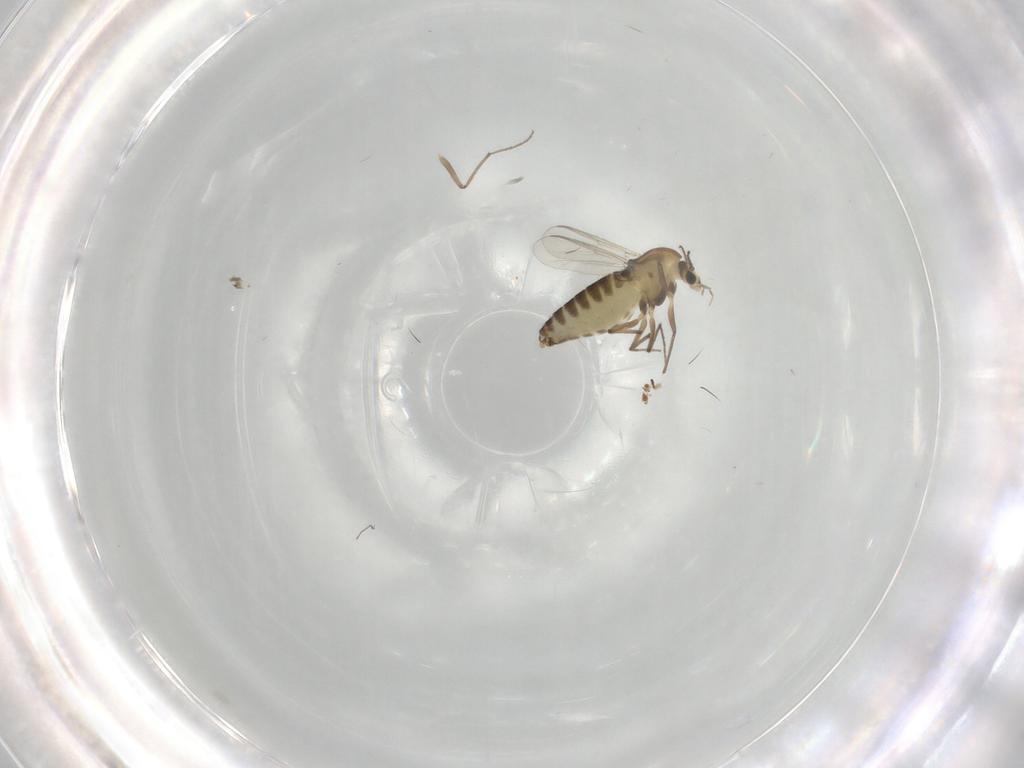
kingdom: Animalia
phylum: Arthropoda
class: Insecta
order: Diptera
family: Chironomidae
